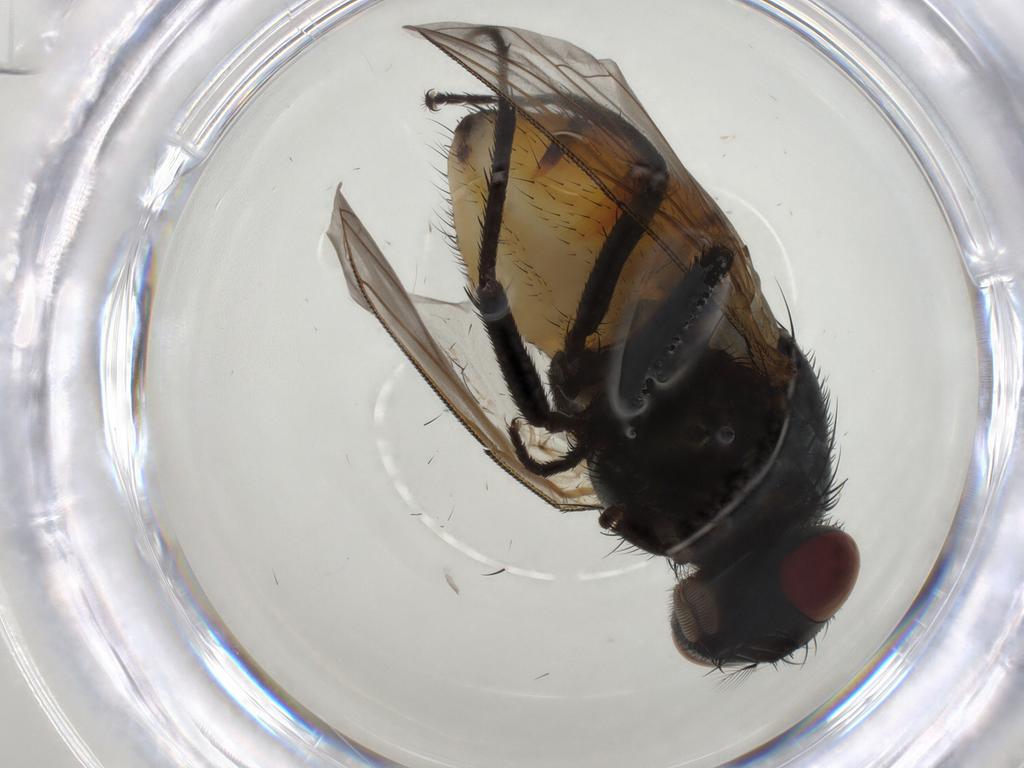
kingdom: Animalia
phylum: Arthropoda
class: Insecta
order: Diptera
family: Muscidae
